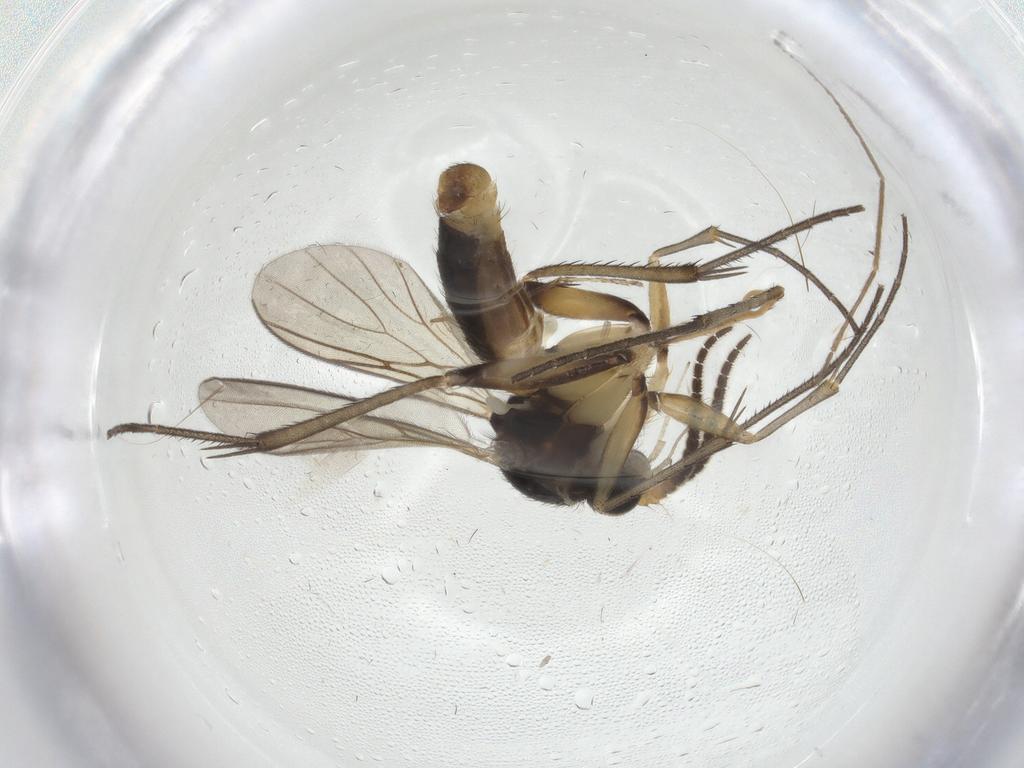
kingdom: Animalia
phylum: Arthropoda
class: Insecta
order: Diptera
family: Mycetophilidae
